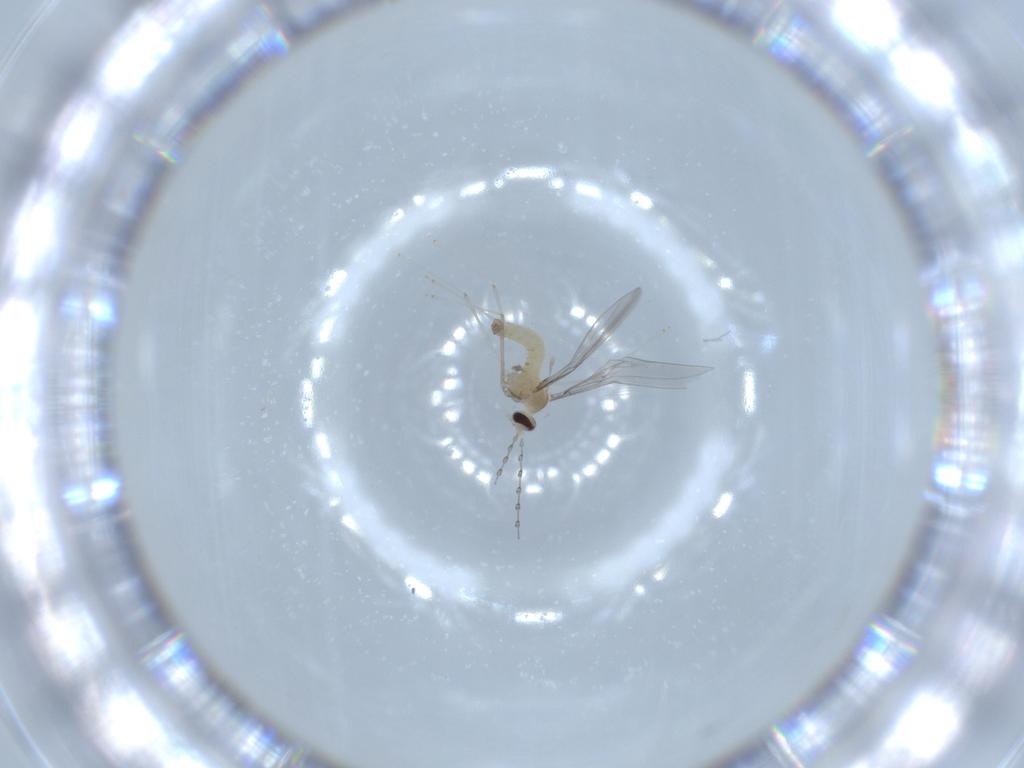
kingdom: Animalia
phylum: Arthropoda
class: Insecta
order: Diptera
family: Cecidomyiidae
